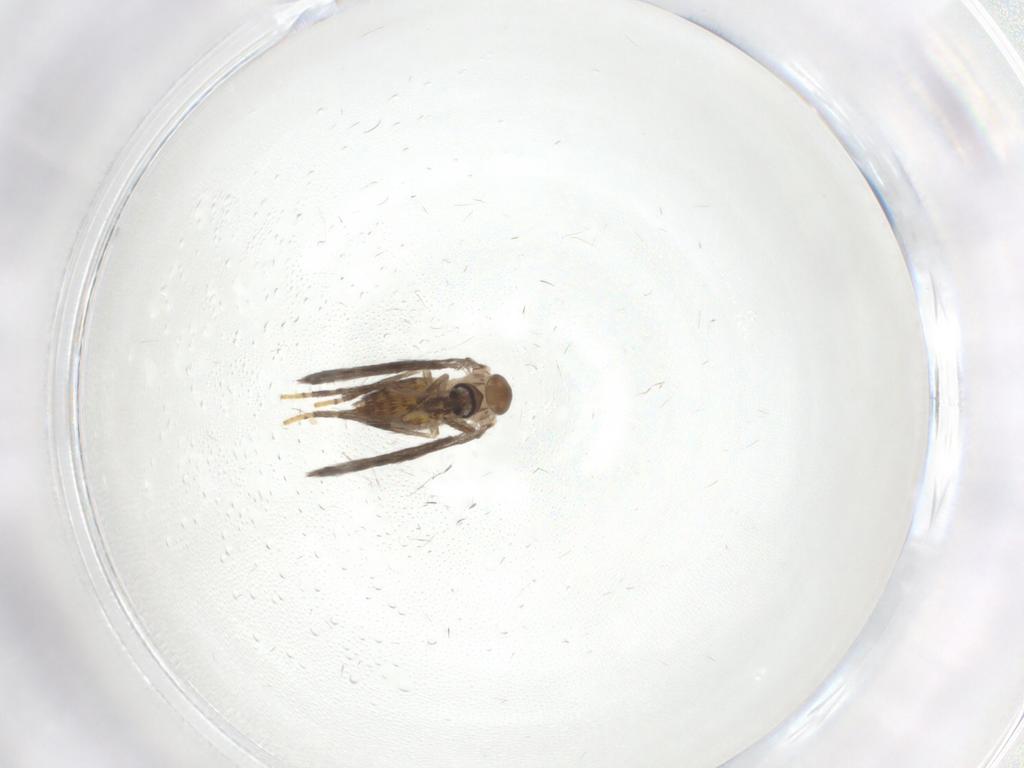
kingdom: Animalia
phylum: Arthropoda
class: Insecta
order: Diptera
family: Psychodidae
